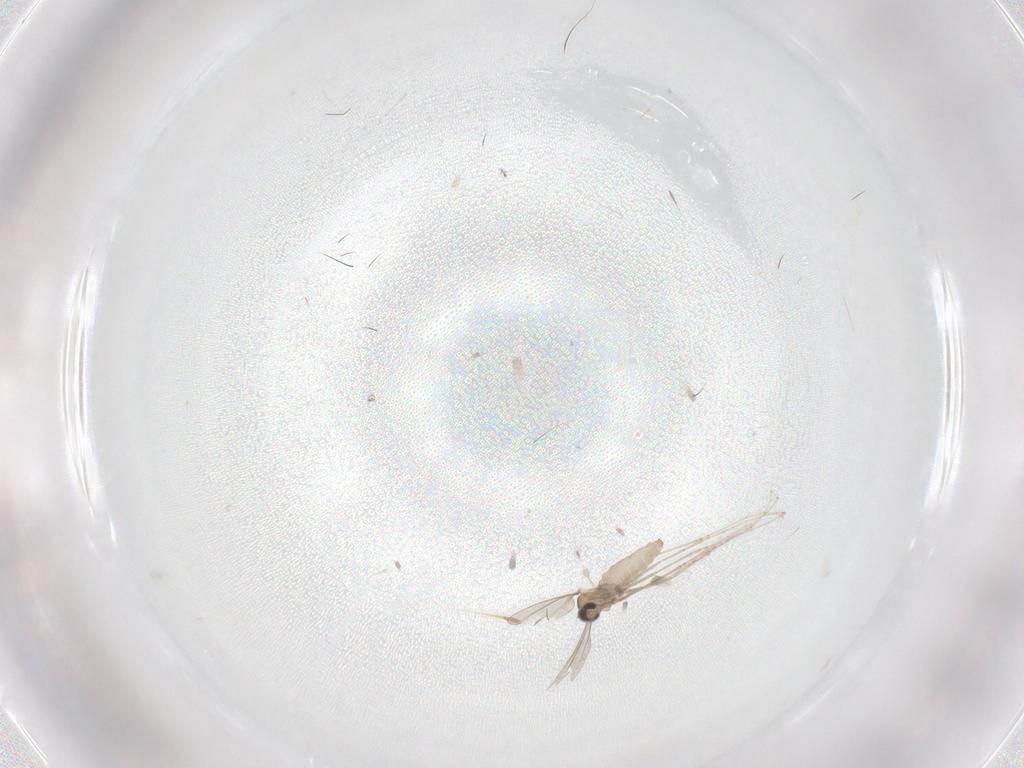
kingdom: Animalia
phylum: Arthropoda
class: Insecta
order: Diptera
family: Cecidomyiidae
